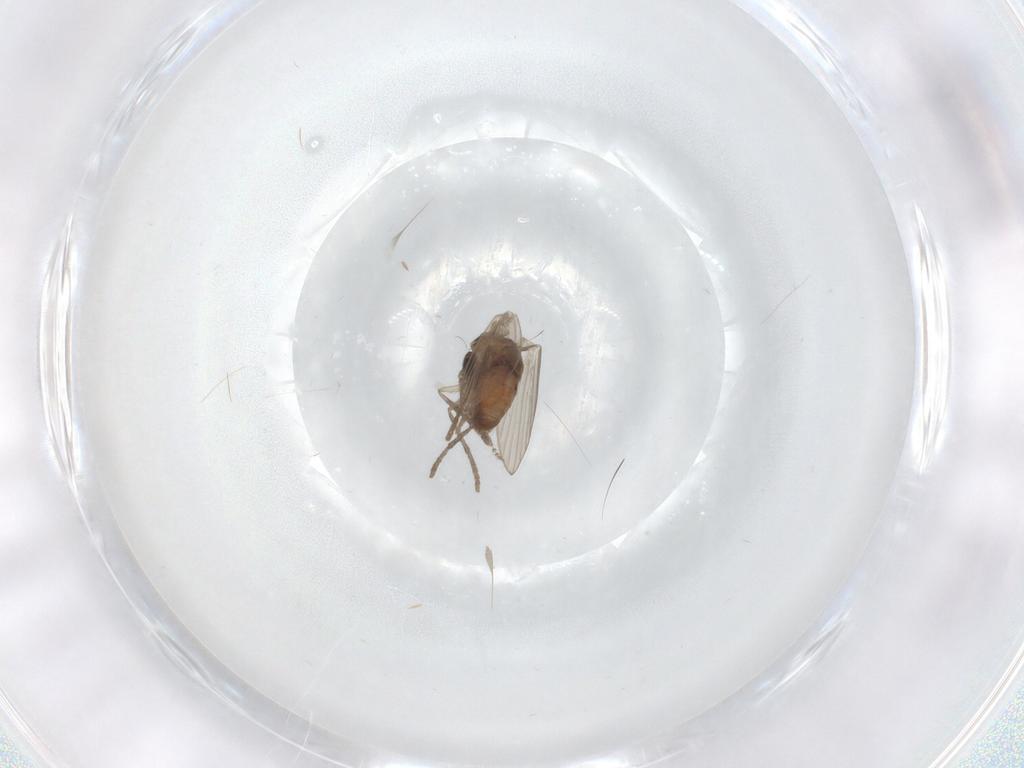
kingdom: Animalia
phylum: Arthropoda
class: Insecta
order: Diptera
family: Psychodidae
